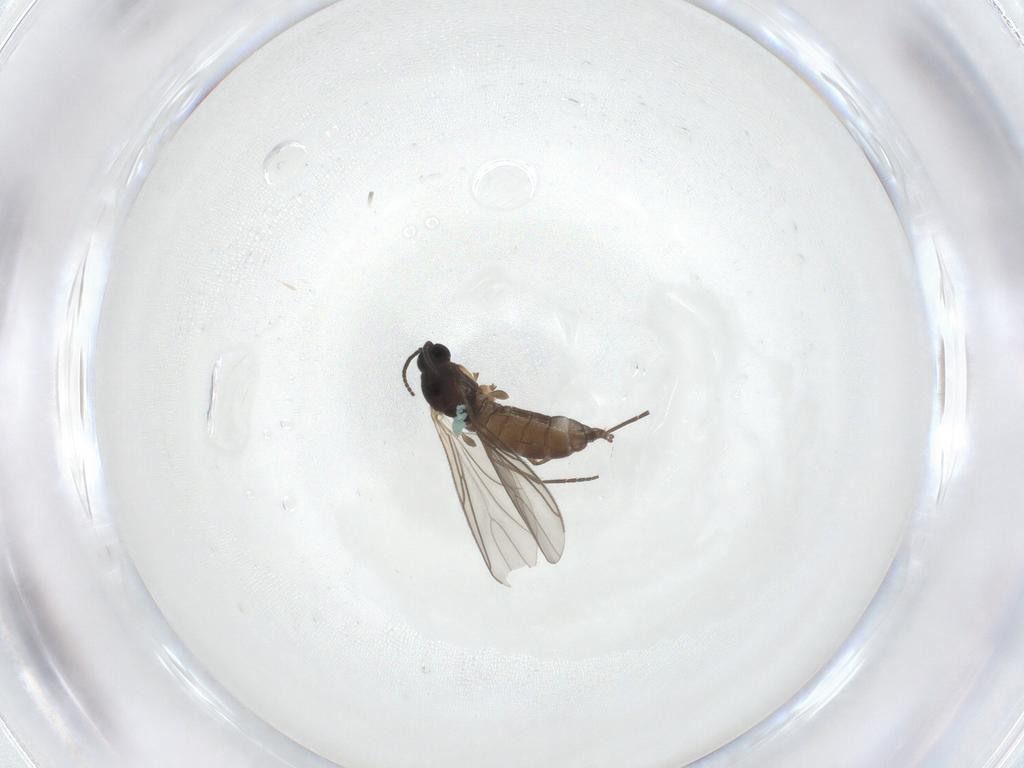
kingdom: Animalia
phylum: Arthropoda
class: Insecta
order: Diptera
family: Sciaridae
